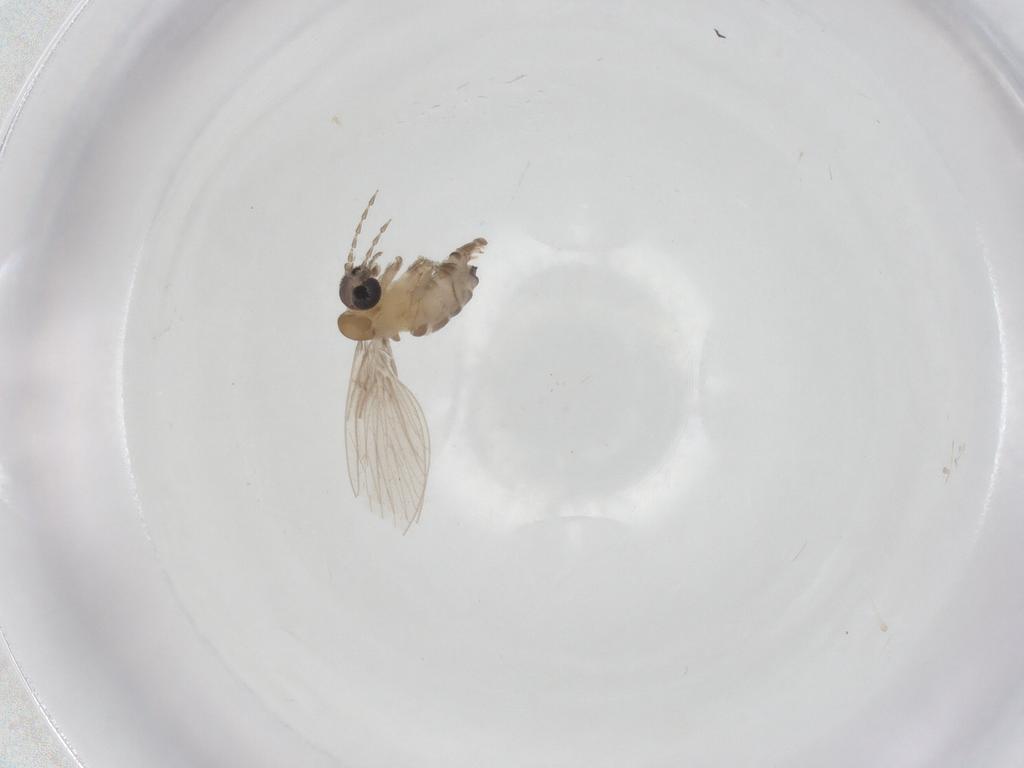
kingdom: Animalia
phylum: Arthropoda
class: Insecta
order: Diptera
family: Psychodidae
